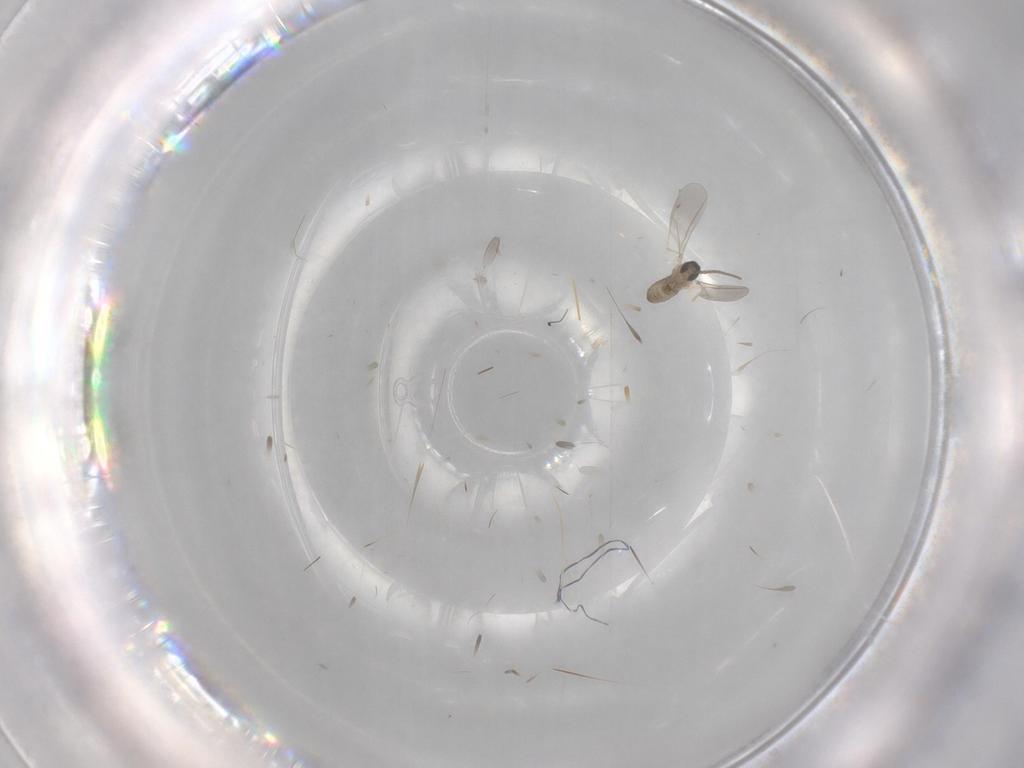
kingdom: Animalia
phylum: Arthropoda
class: Insecta
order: Diptera
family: Cecidomyiidae
